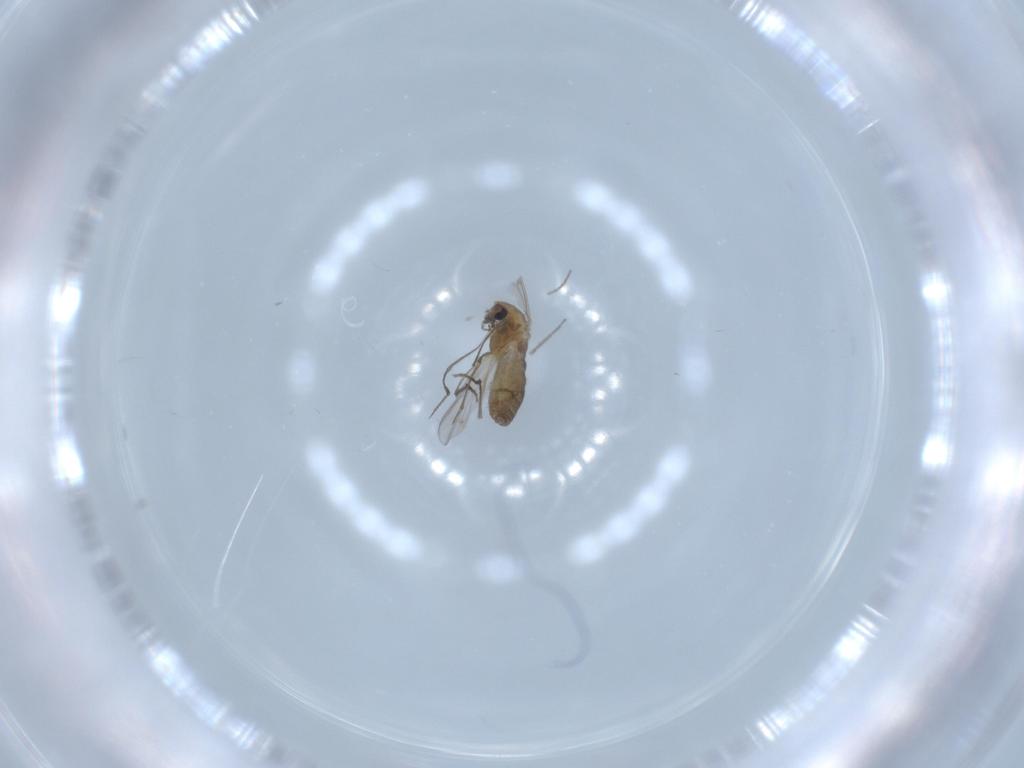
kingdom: Animalia
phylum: Arthropoda
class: Insecta
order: Diptera
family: Chironomidae
